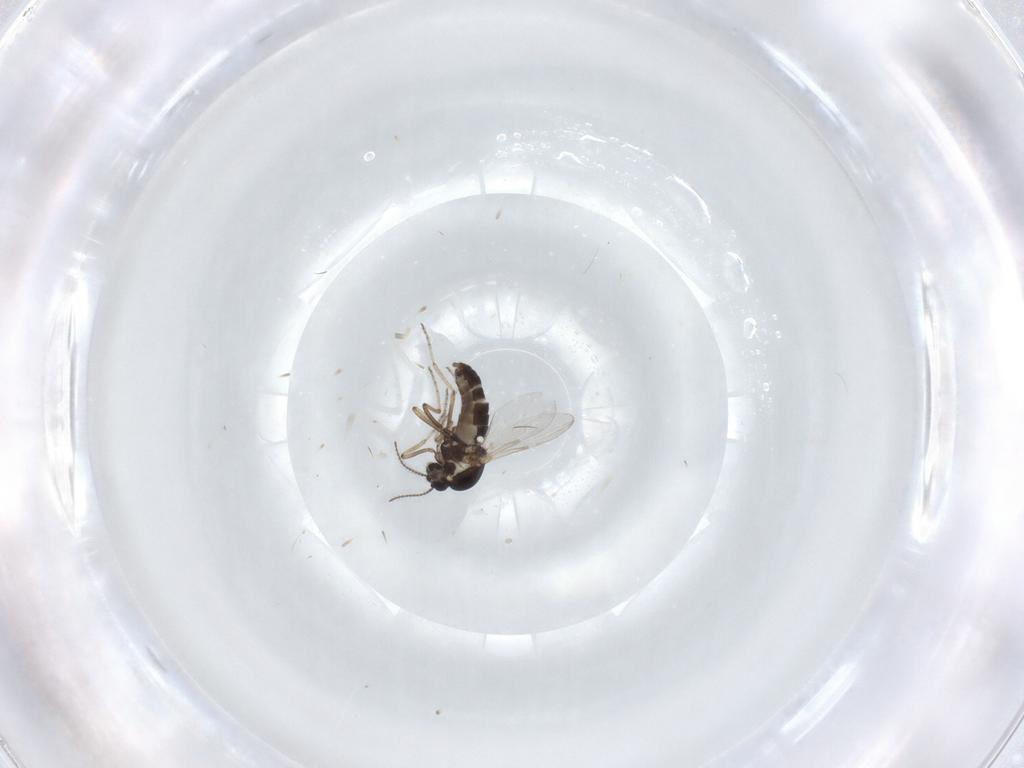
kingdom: Animalia
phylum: Arthropoda
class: Insecta
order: Diptera
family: Ceratopogonidae
